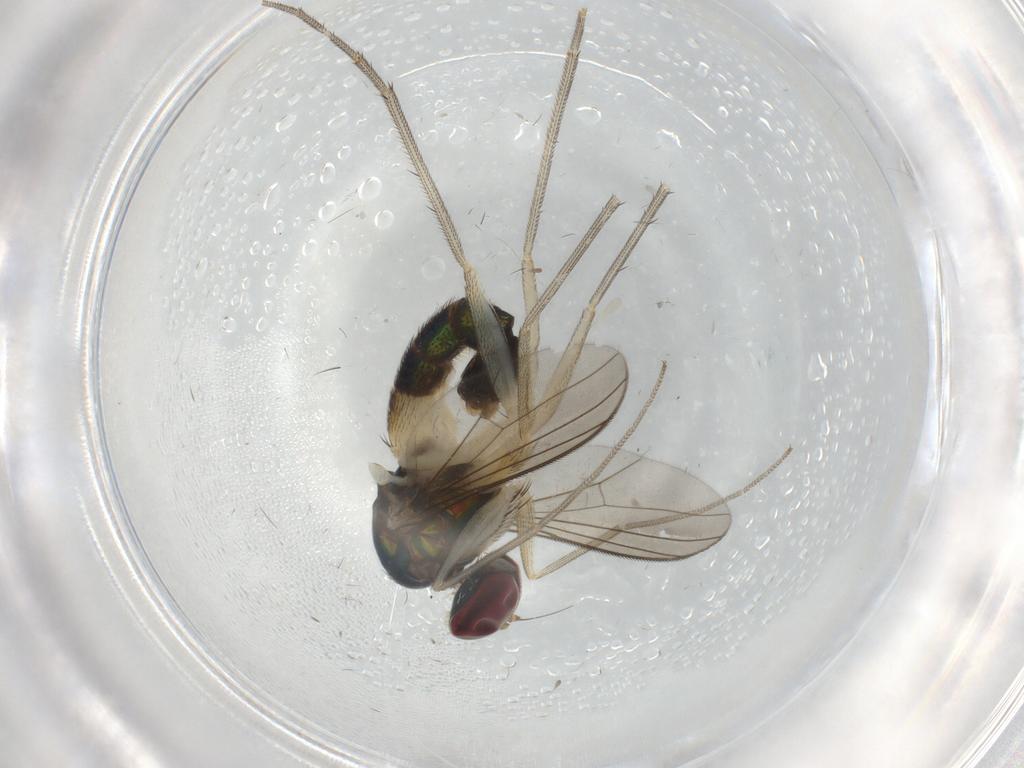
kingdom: Animalia
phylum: Arthropoda
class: Insecta
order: Diptera
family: Dolichopodidae
